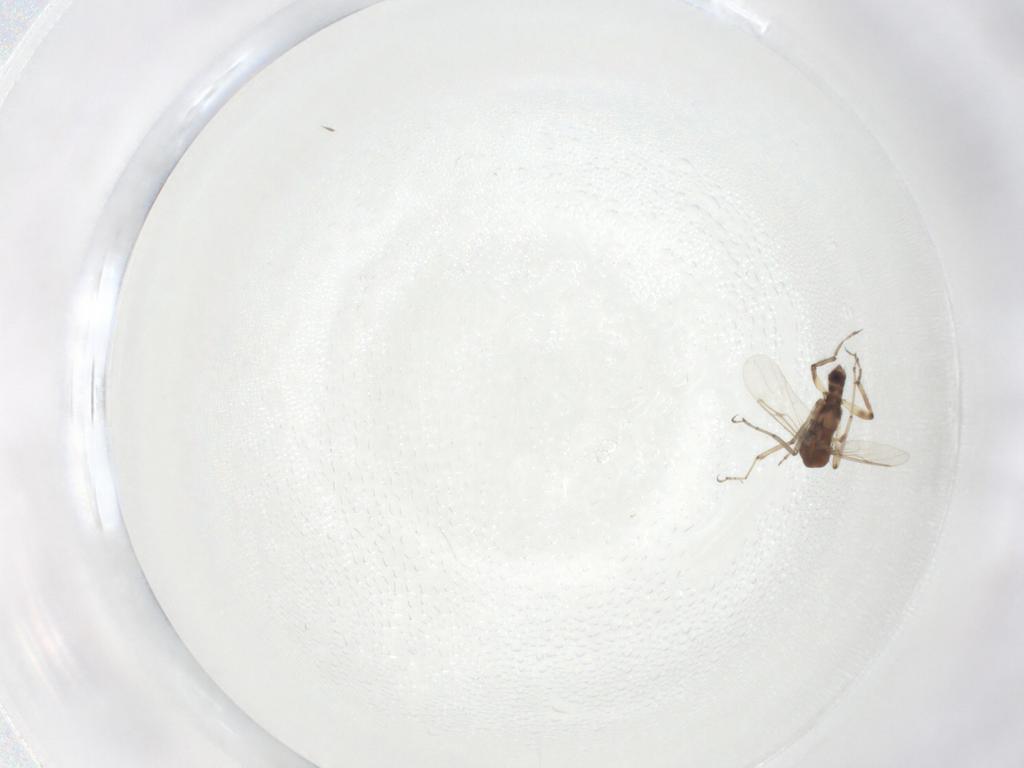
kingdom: Animalia
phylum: Arthropoda
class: Insecta
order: Diptera
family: Ceratopogonidae
